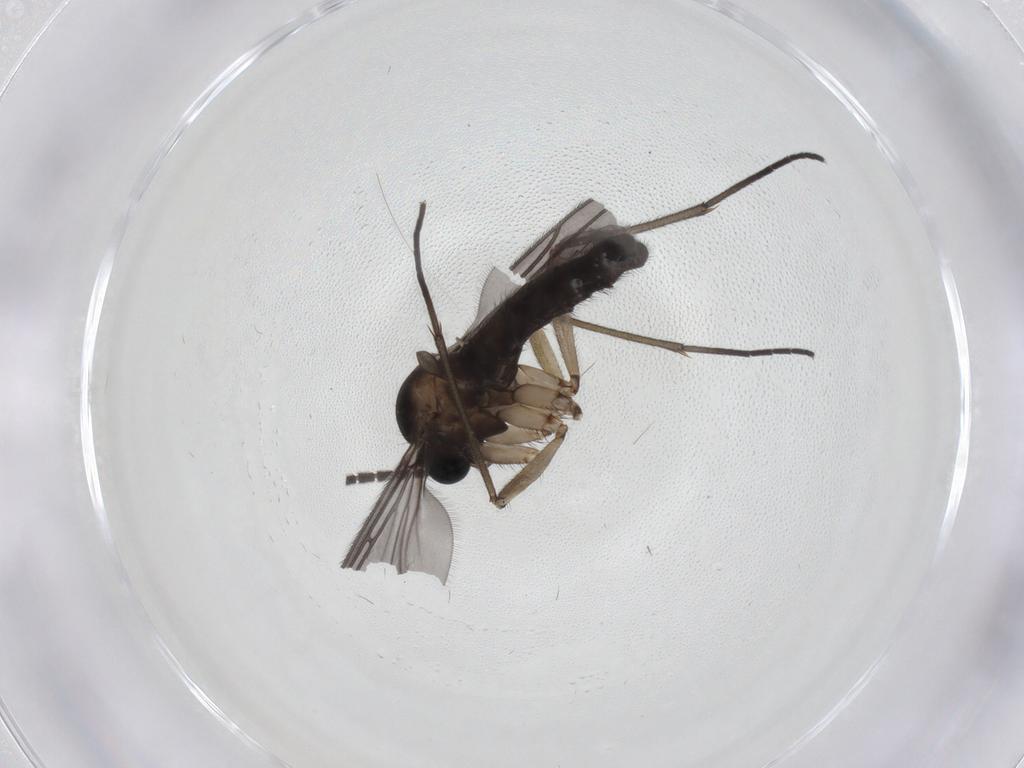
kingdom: Animalia
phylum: Arthropoda
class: Insecta
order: Diptera
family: Sciaridae
